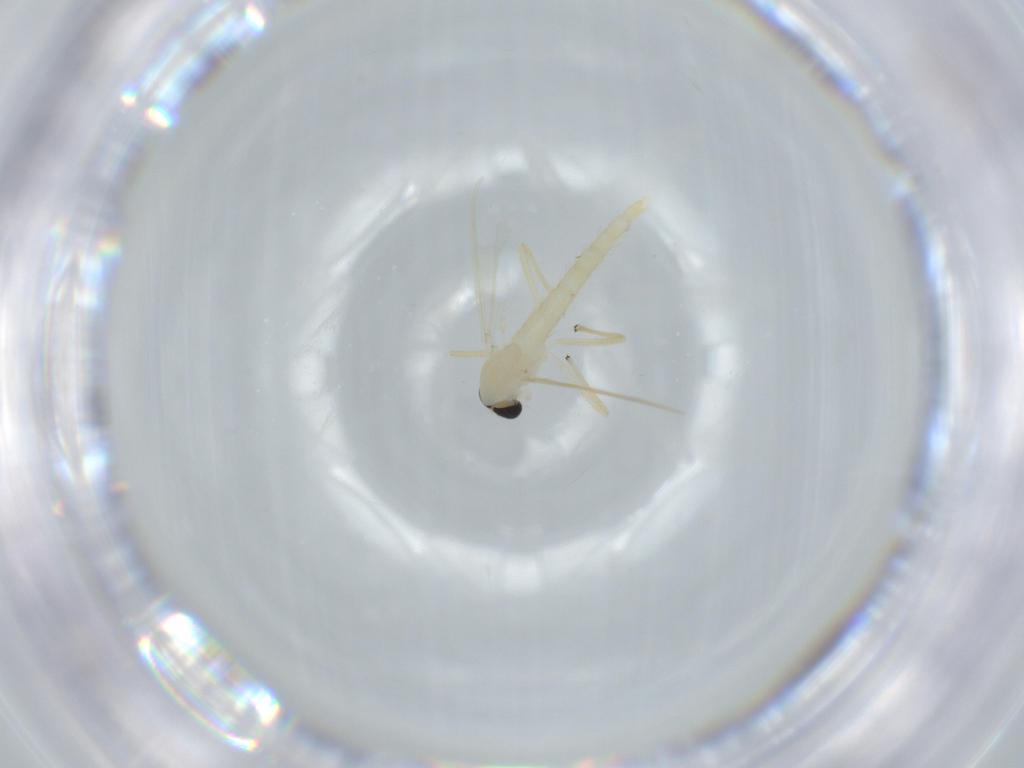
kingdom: Animalia
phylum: Arthropoda
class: Insecta
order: Diptera
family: Chironomidae
